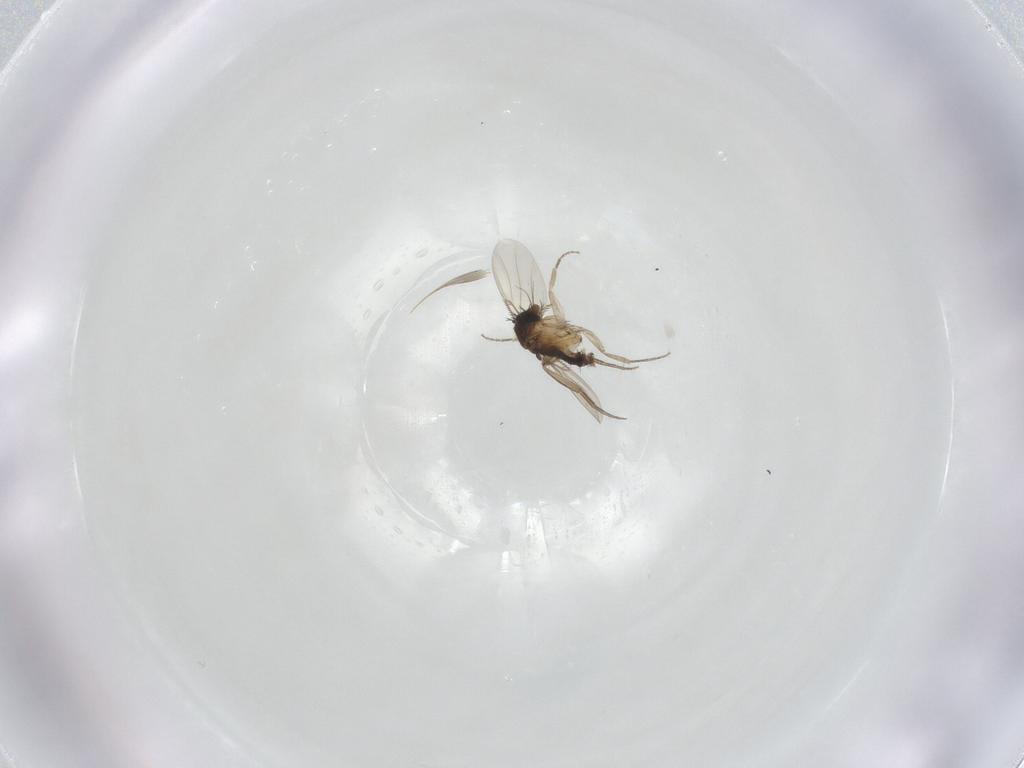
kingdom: Animalia
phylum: Arthropoda
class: Insecta
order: Diptera
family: Phoridae
